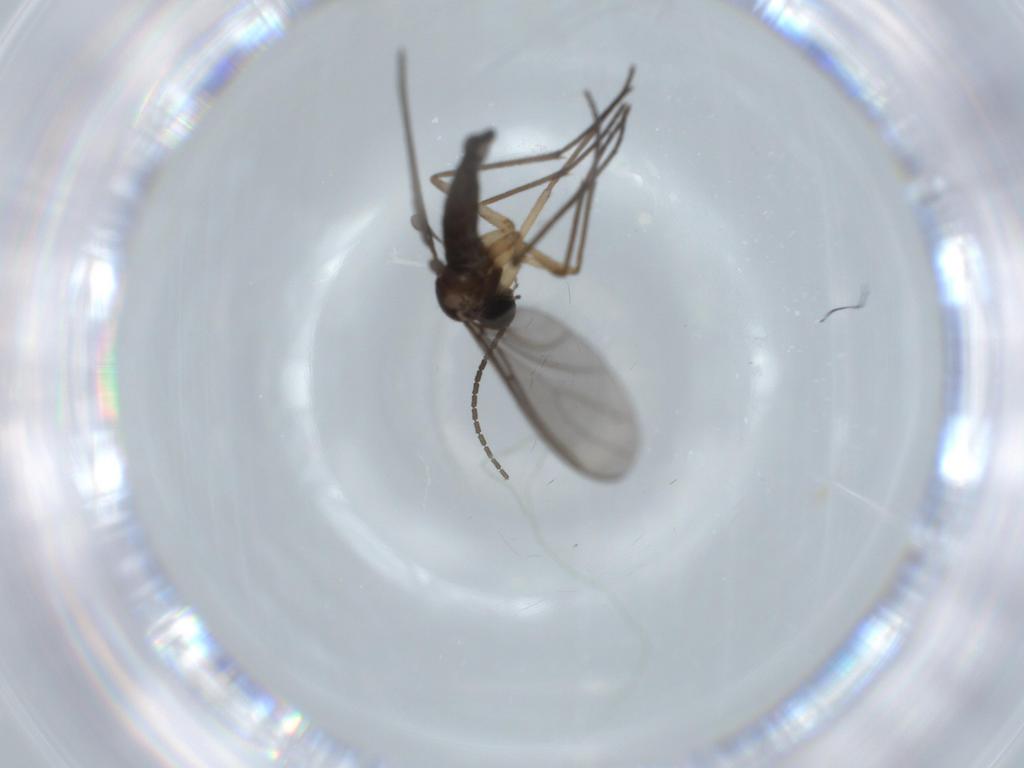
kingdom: Animalia
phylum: Arthropoda
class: Insecta
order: Diptera
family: Sciaridae
